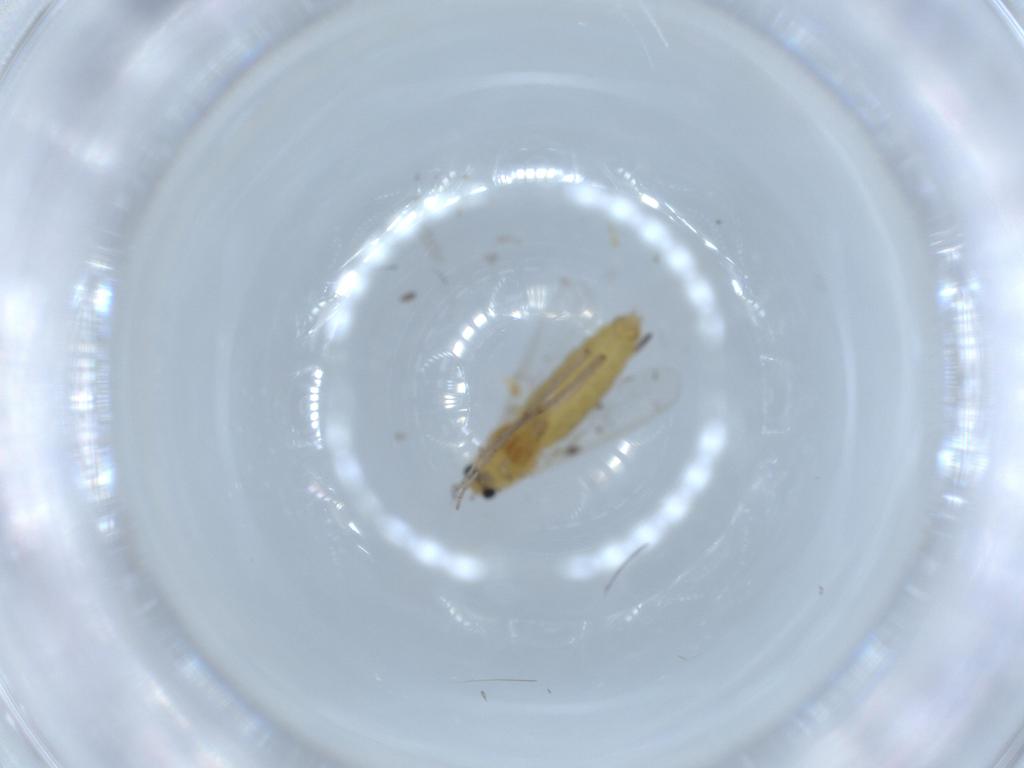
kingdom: Animalia
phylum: Arthropoda
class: Insecta
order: Diptera
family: Chironomidae
